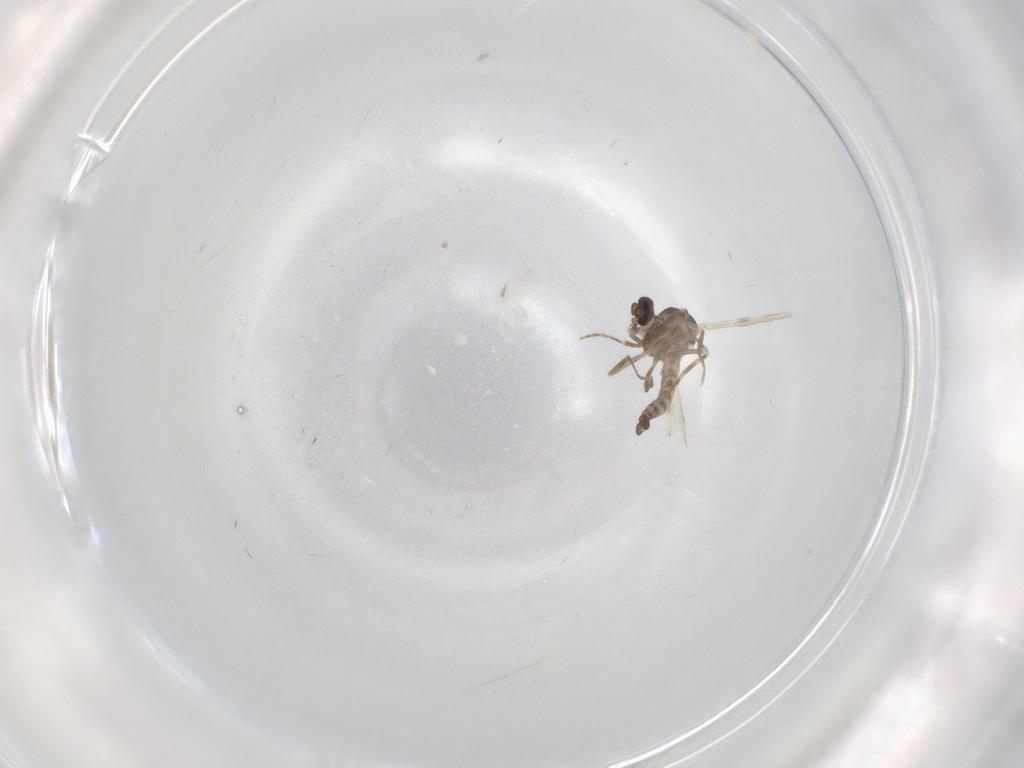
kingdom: Animalia
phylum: Arthropoda
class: Insecta
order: Diptera
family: Ceratopogonidae
